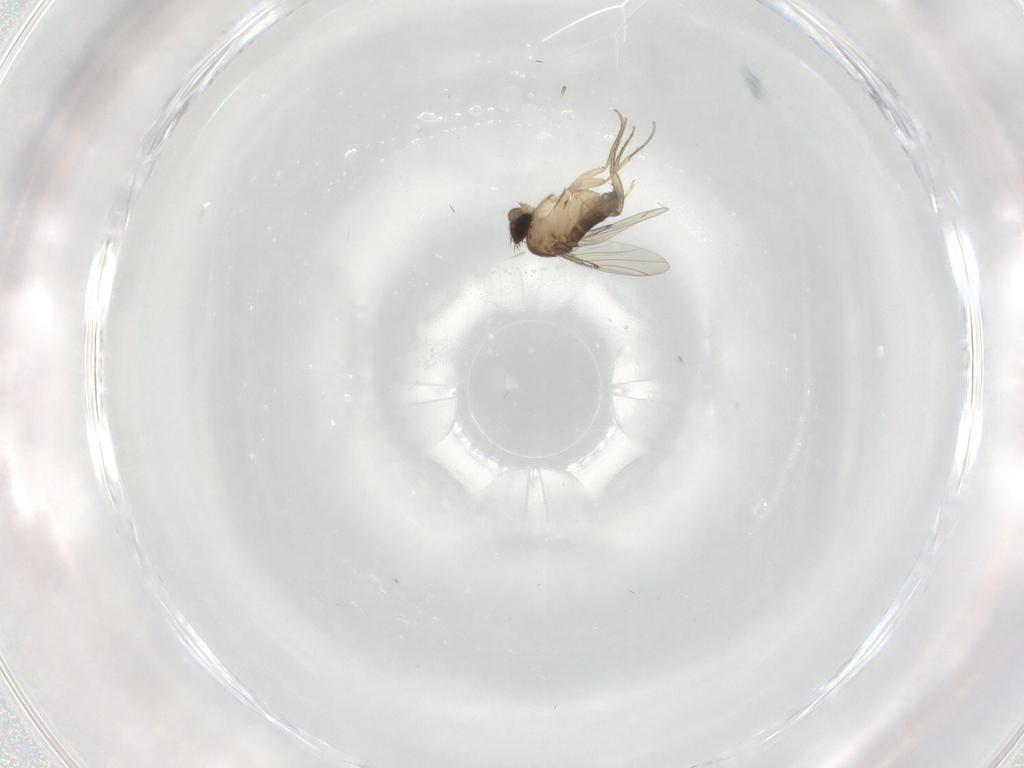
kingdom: Animalia
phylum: Arthropoda
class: Insecta
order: Diptera
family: Phoridae
